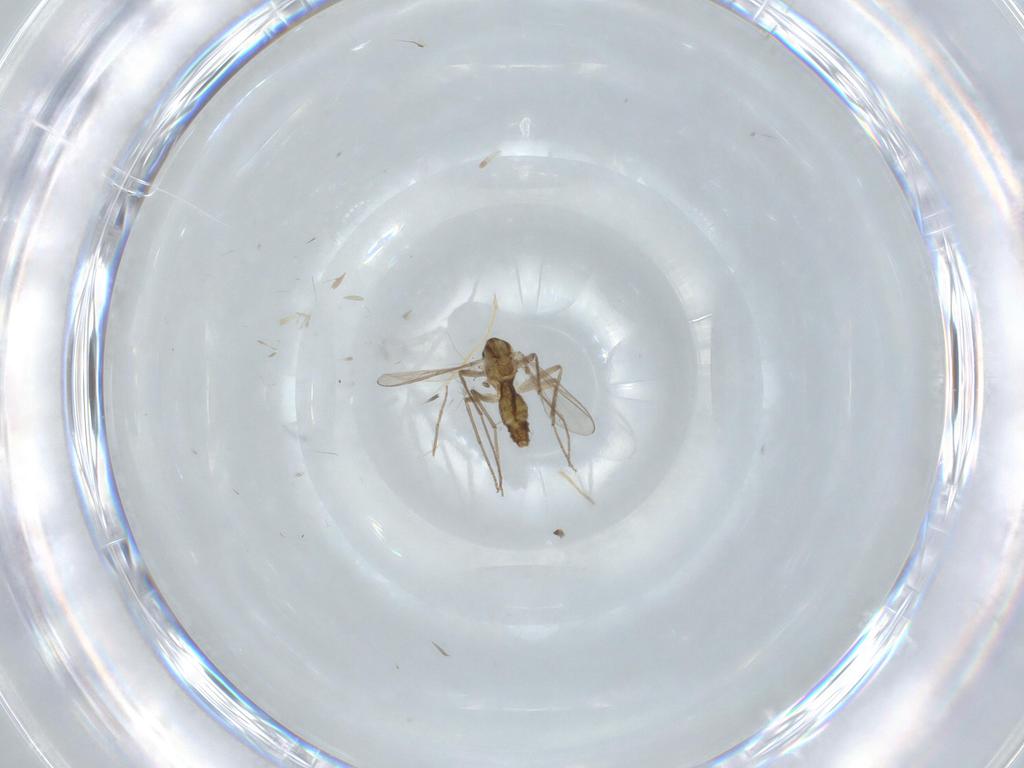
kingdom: Animalia
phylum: Arthropoda
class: Insecta
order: Diptera
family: Chironomidae
